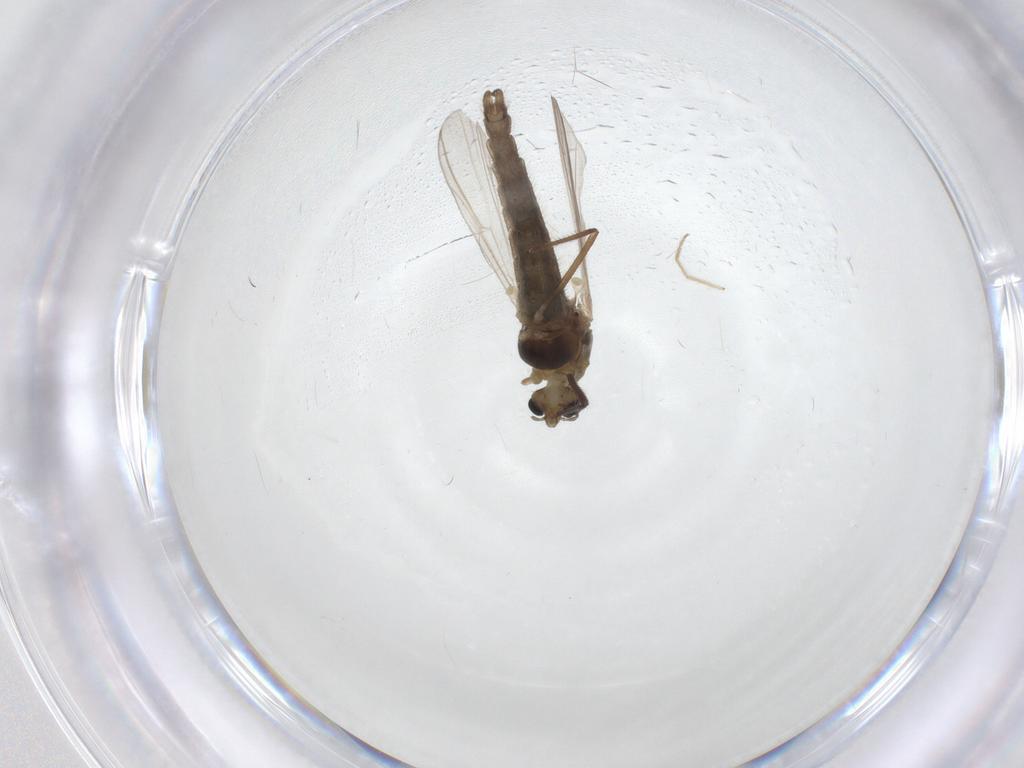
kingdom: Animalia
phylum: Arthropoda
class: Insecta
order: Diptera
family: Chironomidae
